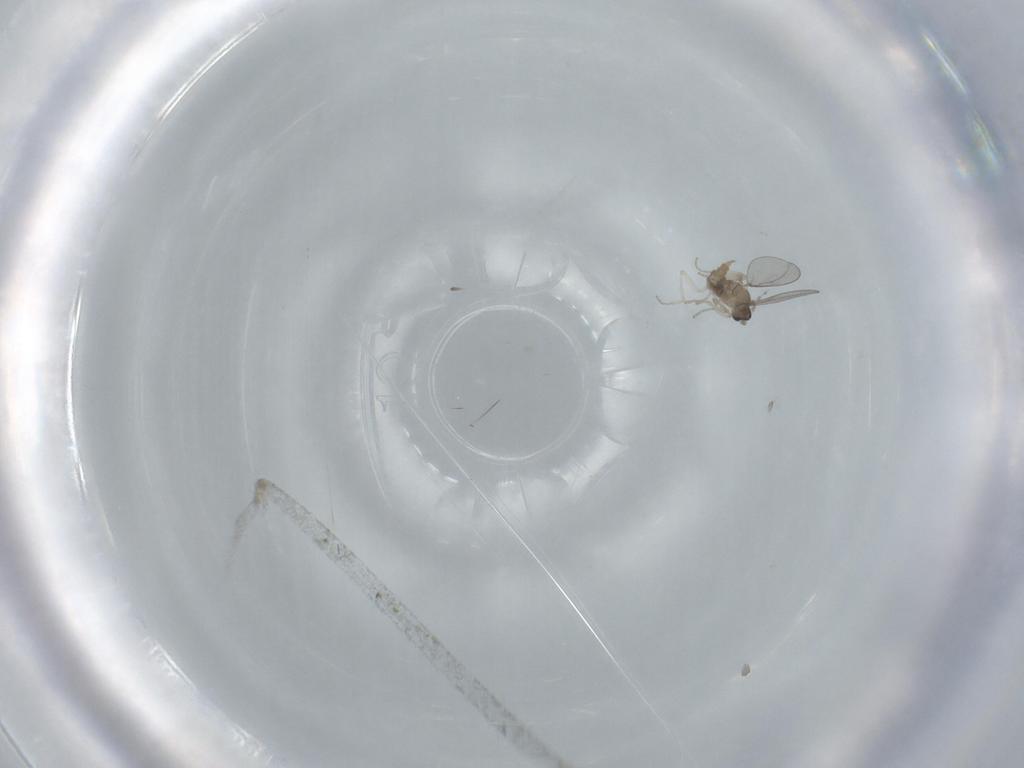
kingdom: Animalia
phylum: Arthropoda
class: Insecta
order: Diptera
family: Cecidomyiidae
